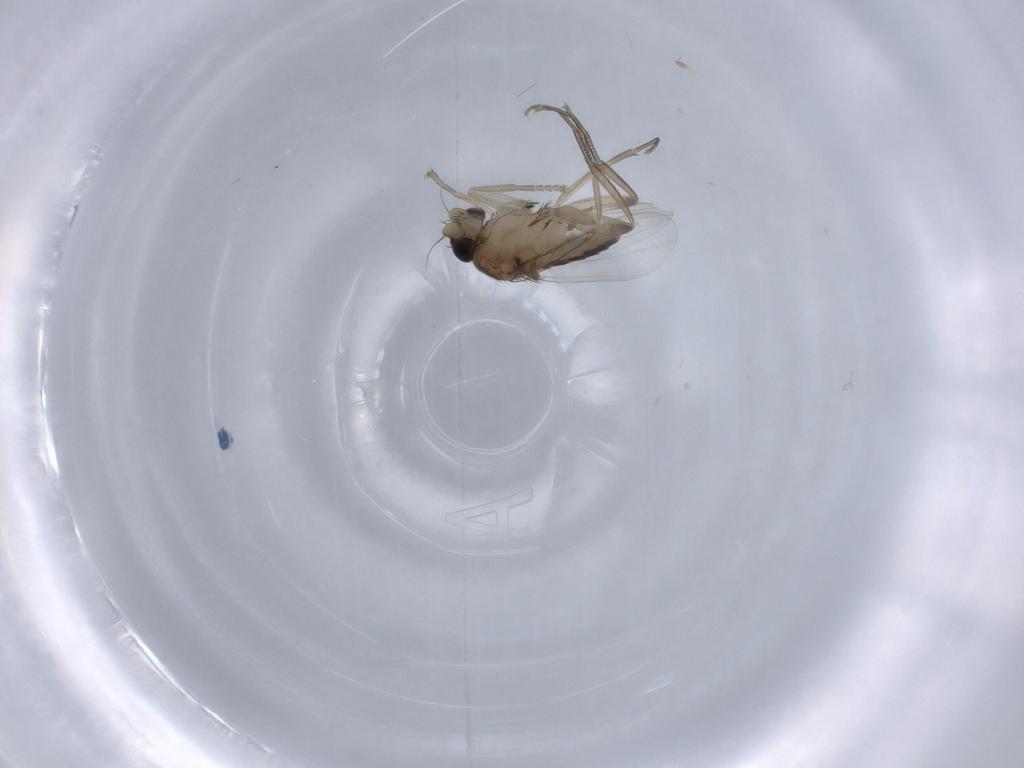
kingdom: Animalia
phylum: Arthropoda
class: Insecta
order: Diptera
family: Phoridae
